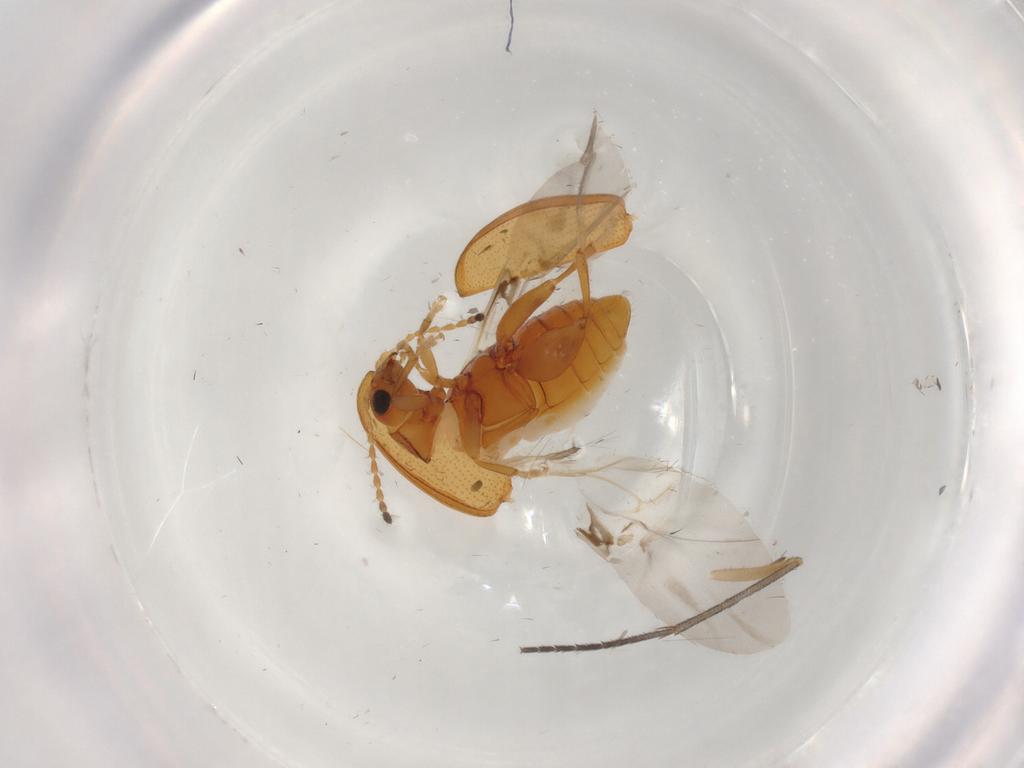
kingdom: Animalia
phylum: Arthropoda
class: Insecta
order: Coleoptera
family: Chrysomelidae
